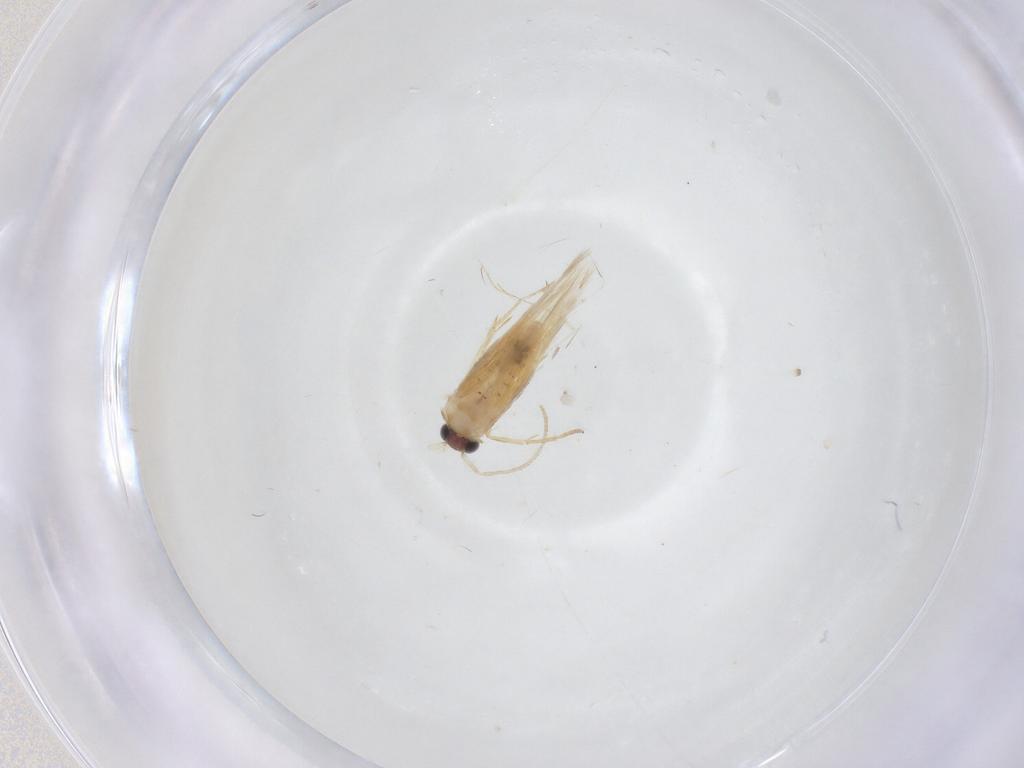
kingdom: Animalia
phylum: Arthropoda
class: Insecta
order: Lepidoptera
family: Nepticulidae
